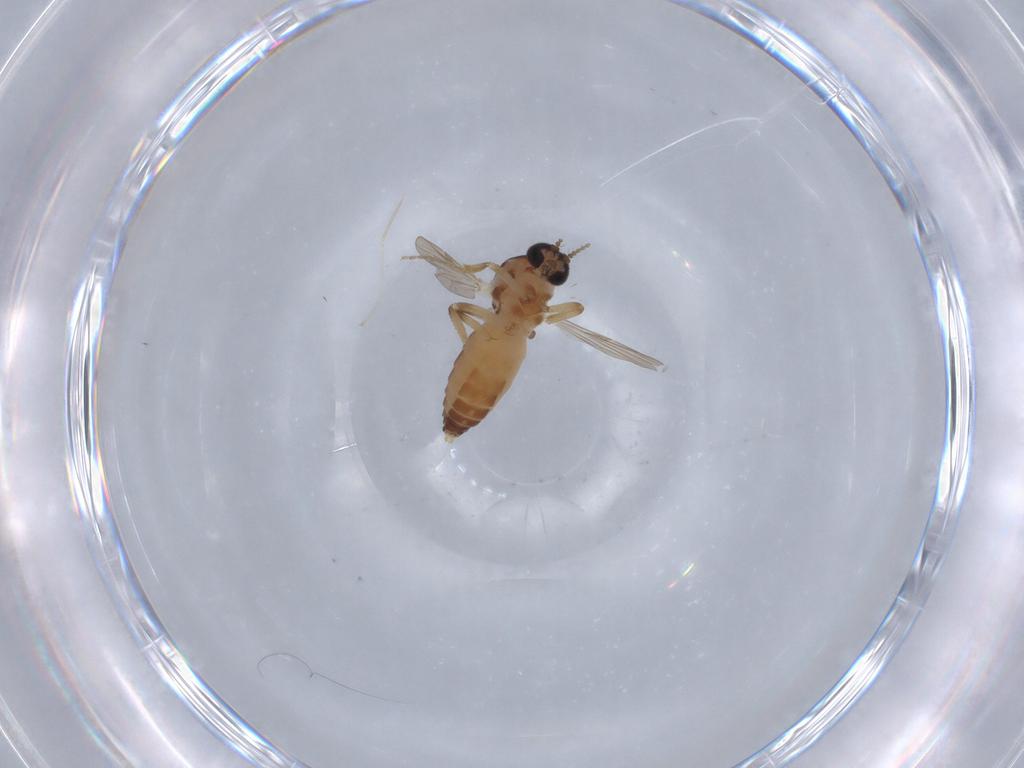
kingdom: Animalia
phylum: Arthropoda
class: Insecta
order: Diptera
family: Ceratopogonidae
